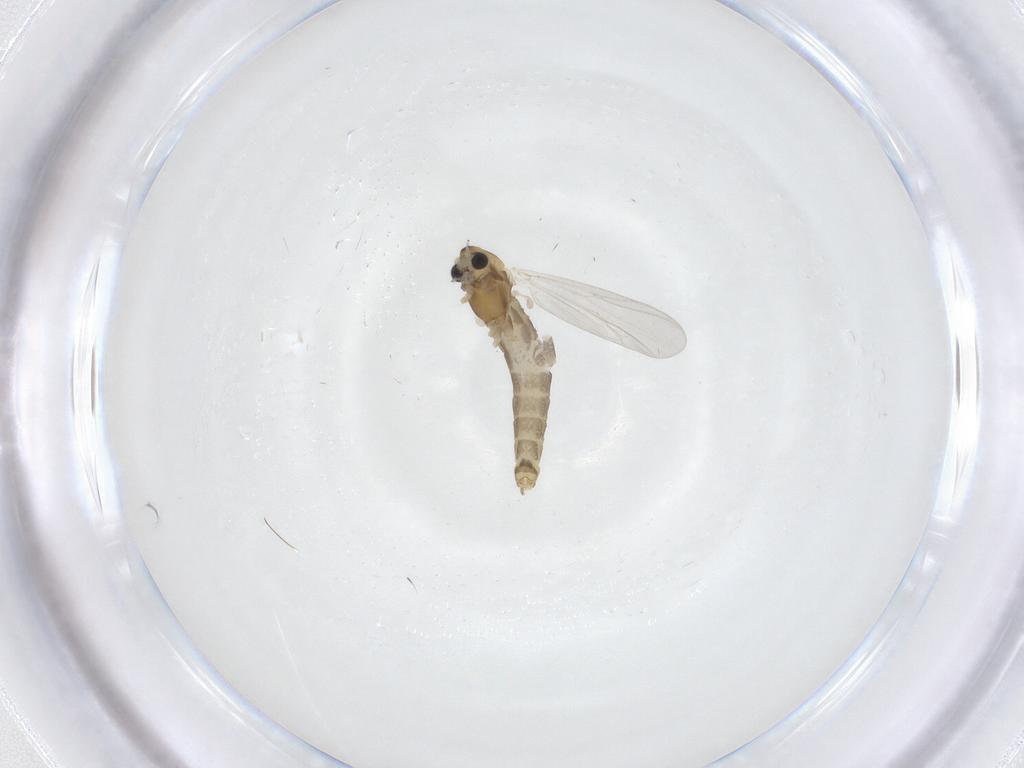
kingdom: Animalia
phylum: Arthropoda
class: Insecta
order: Diptera
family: Chironomidae
